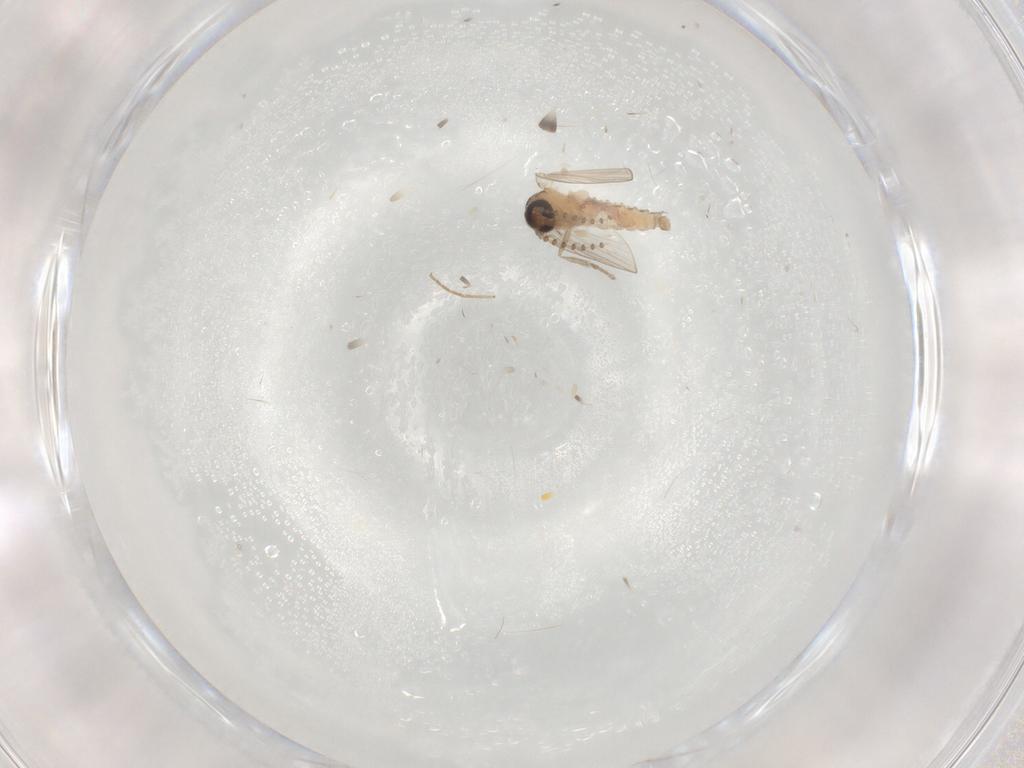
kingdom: Animalia
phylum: Arthropoda
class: Insecta
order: Diptera
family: Psychodidae
